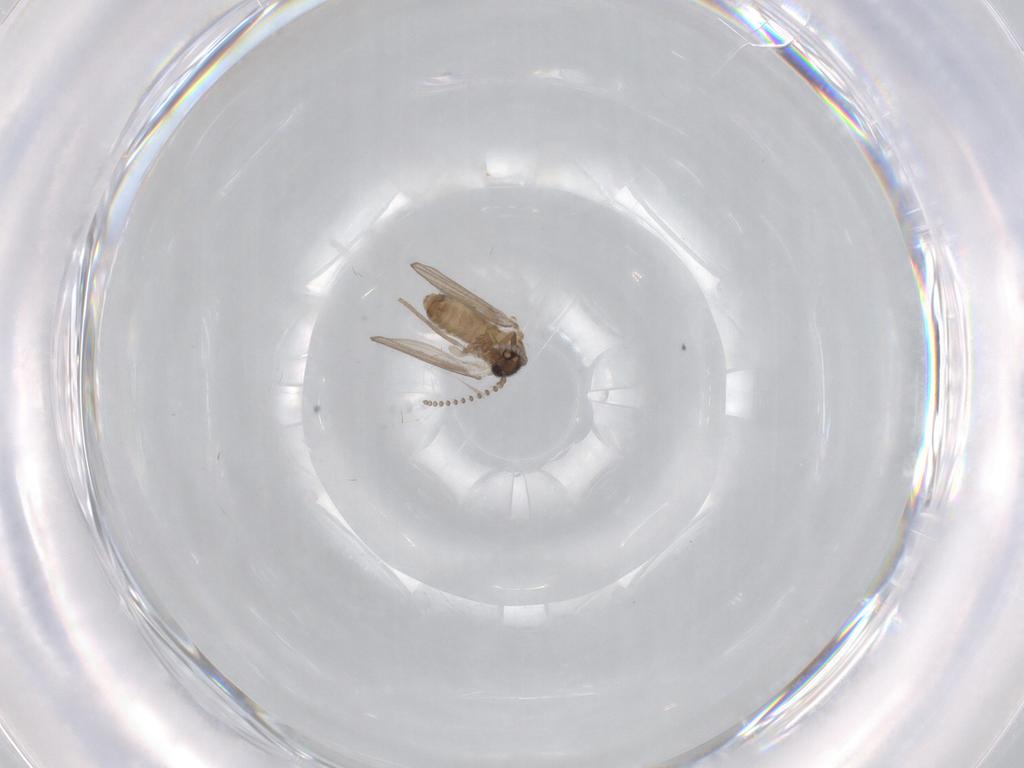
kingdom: Animalia
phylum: Arthropoda
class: Insecta
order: Diptera
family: Psychodidae
